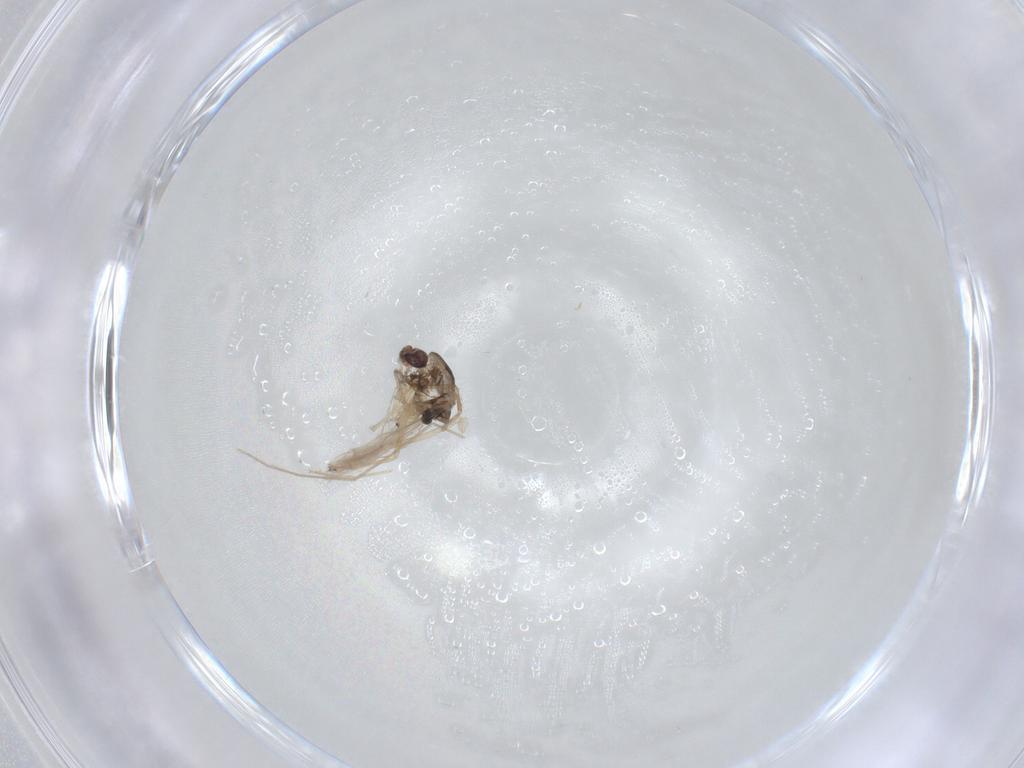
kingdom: Animalia
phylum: Arthropoda
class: Insecta
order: Diptera
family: Chironomidae
